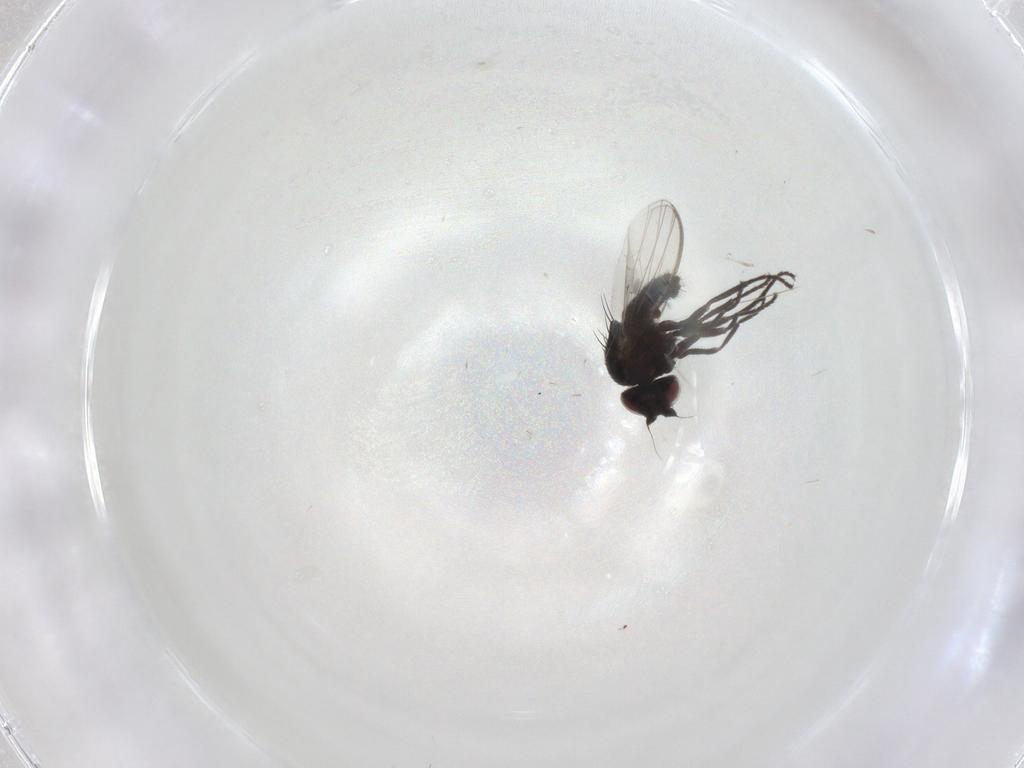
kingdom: Animalia
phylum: Arthropoda
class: Insecta
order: Diptera
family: Milichiidae
